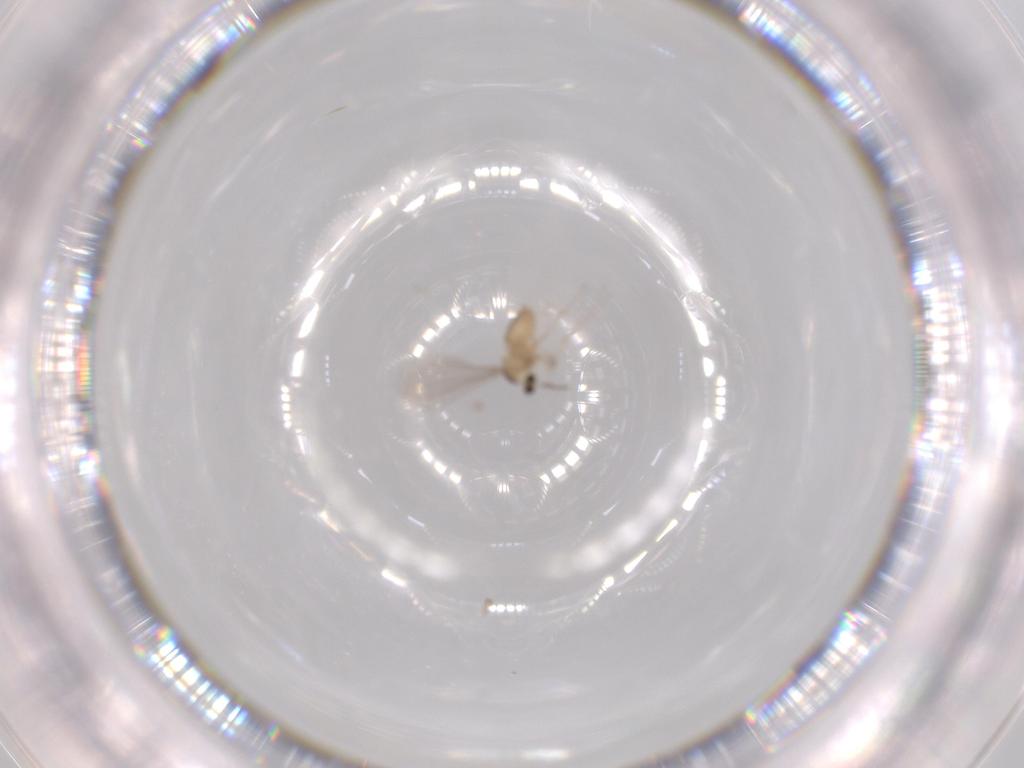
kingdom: Animalia
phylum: Arthropoda
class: Insecta
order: Diptera
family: Cecidomyiidae
